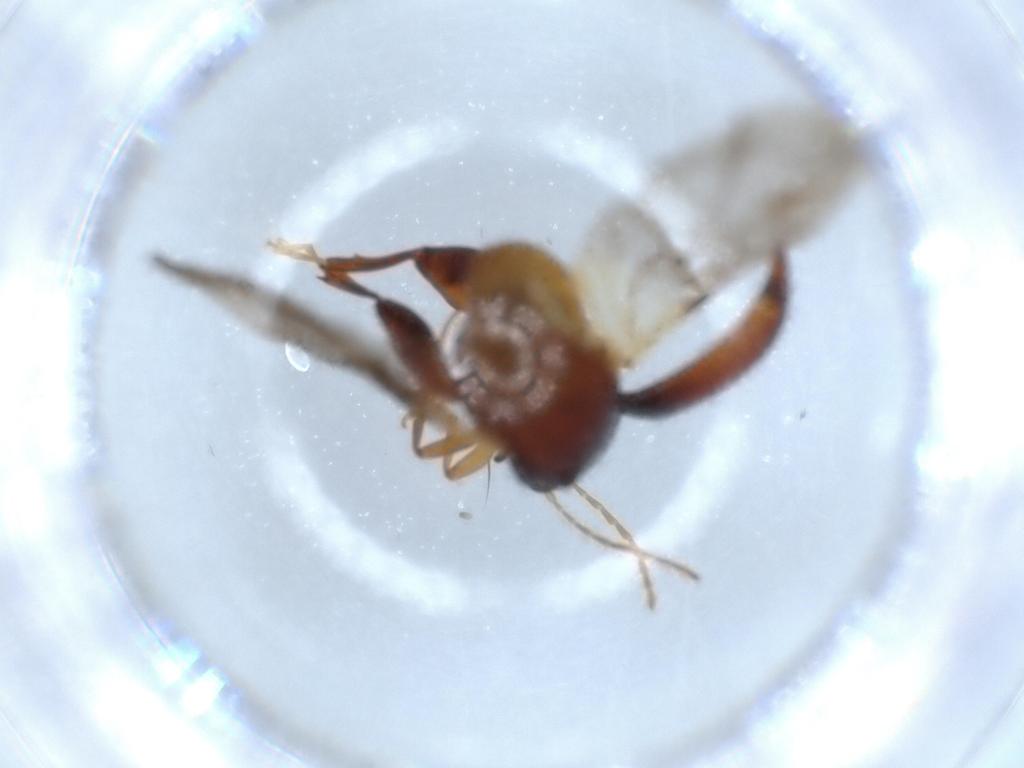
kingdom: Animalia
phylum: Arthropoda
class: Insecta
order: Coleoptera
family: Chrysomelidae
